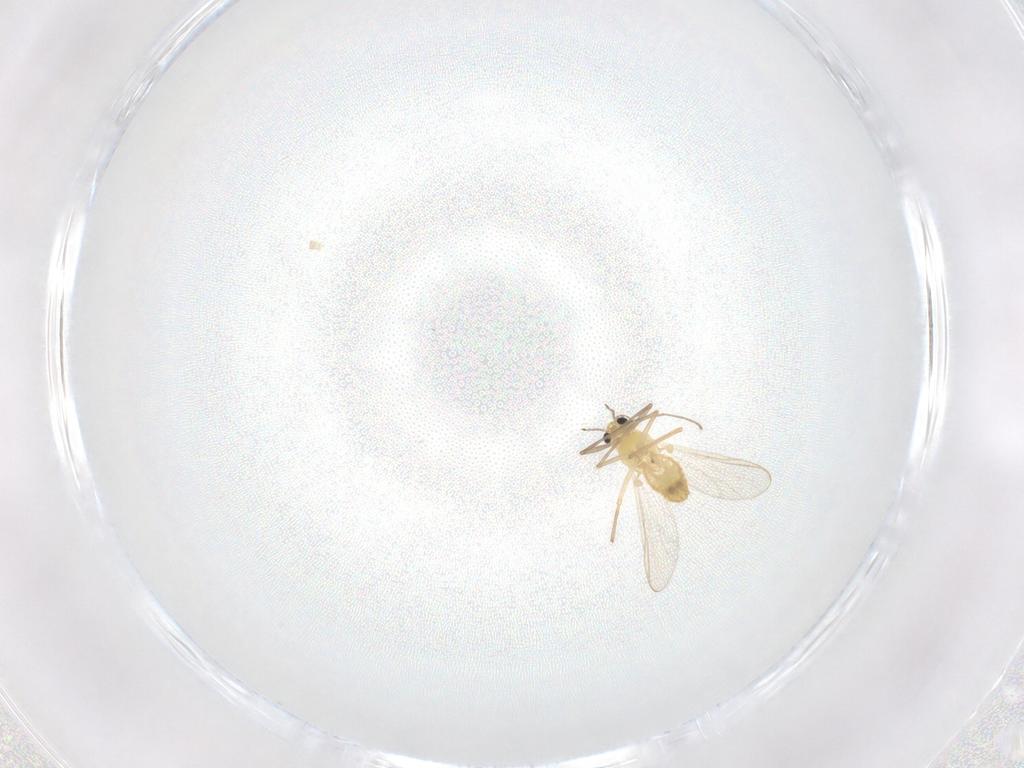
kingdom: Animalia
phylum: Arthropoda
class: Insecta
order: Diptera
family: Chironomidae
